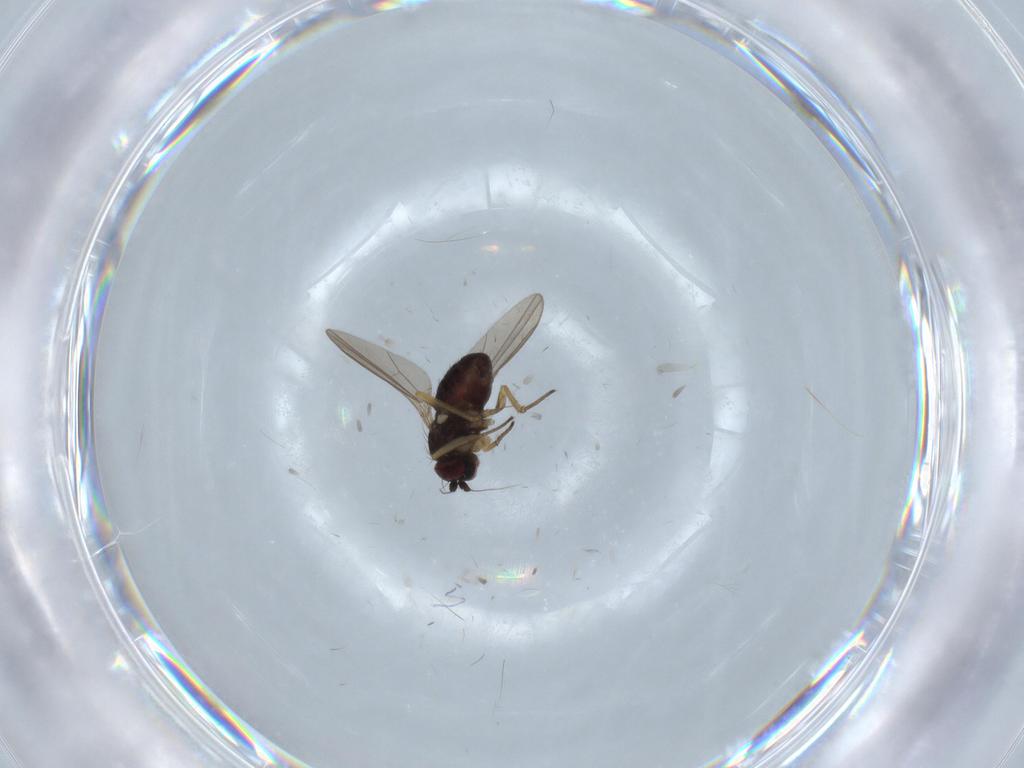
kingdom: Animalia
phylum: Arthropoda
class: Insecta
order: Diptera
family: Dolichopodidae
